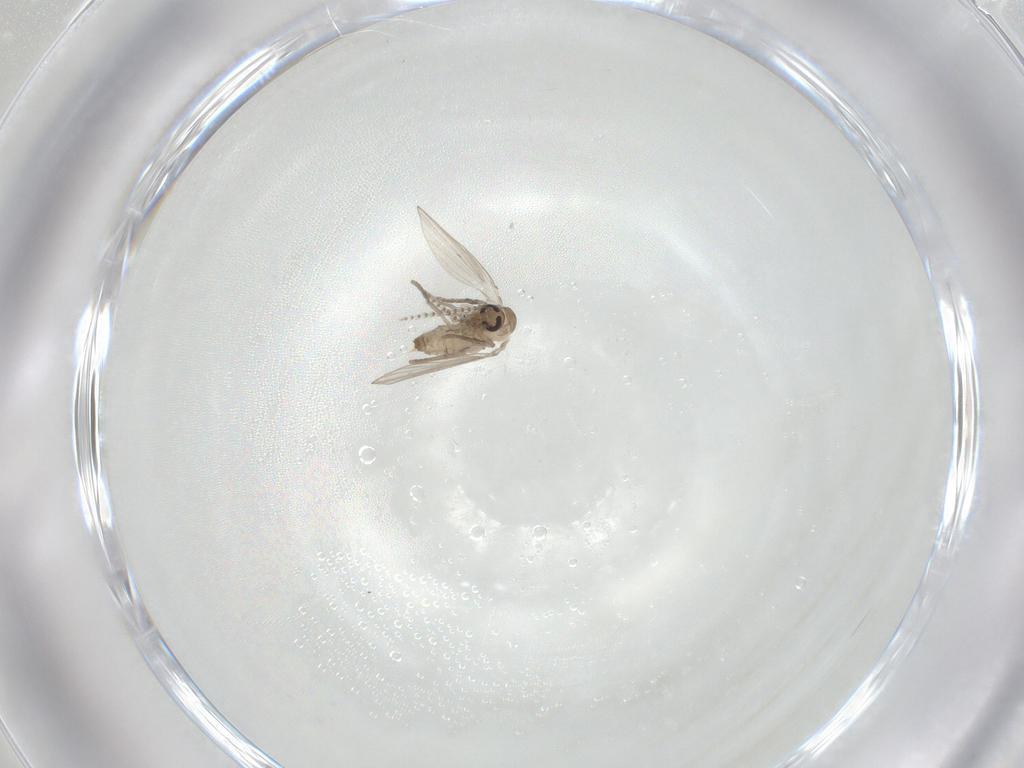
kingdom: Animalia
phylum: Arthropoda
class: Insecta
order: Diptera
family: Psychodidae
